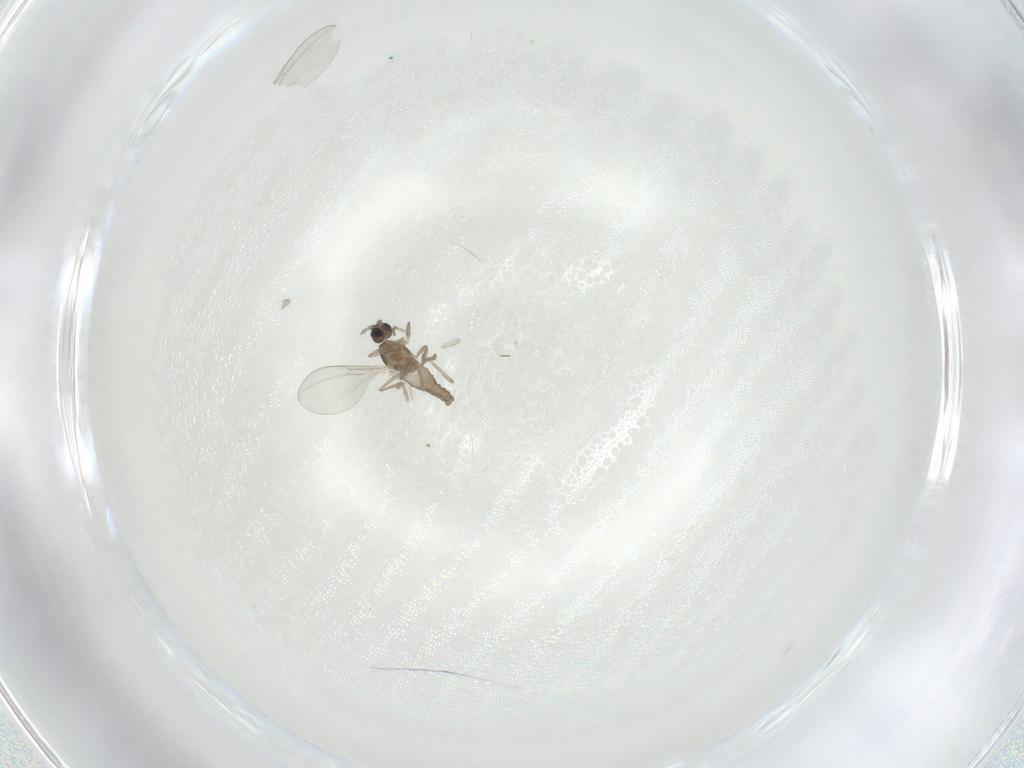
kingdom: Animalia
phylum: Arthropoda
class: Insecta
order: Diptera
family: Cecidomyiidae
